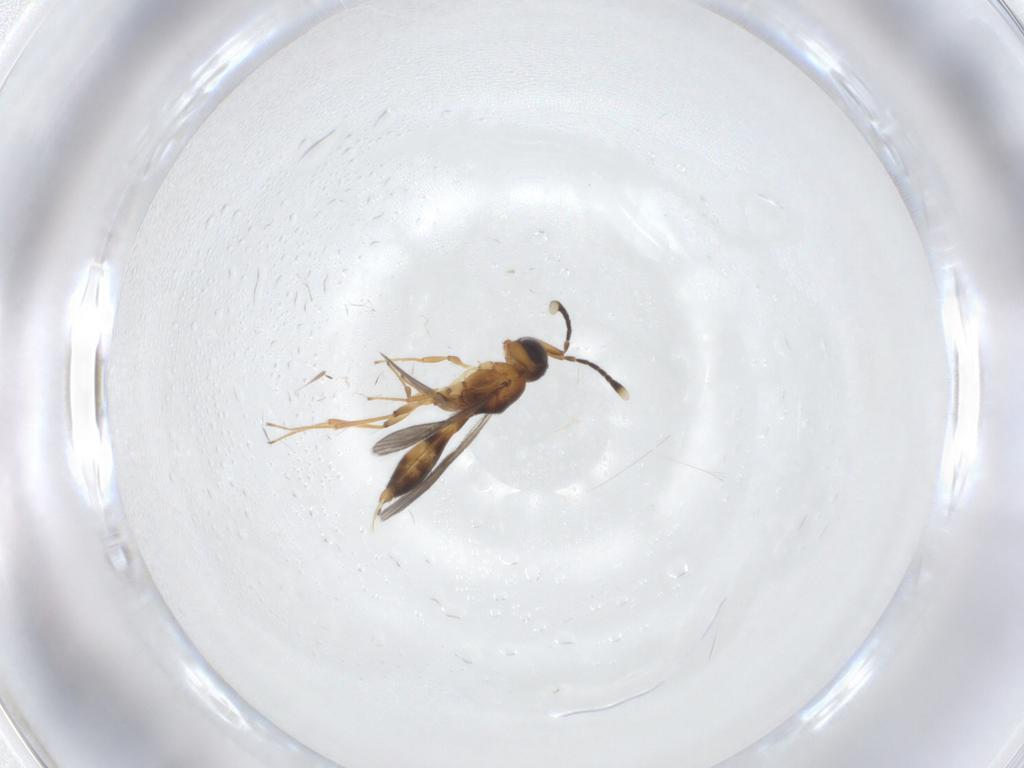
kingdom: Animalia
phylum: Arthropoda
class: Insecta
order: Hymenoptera
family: Scelionidae
